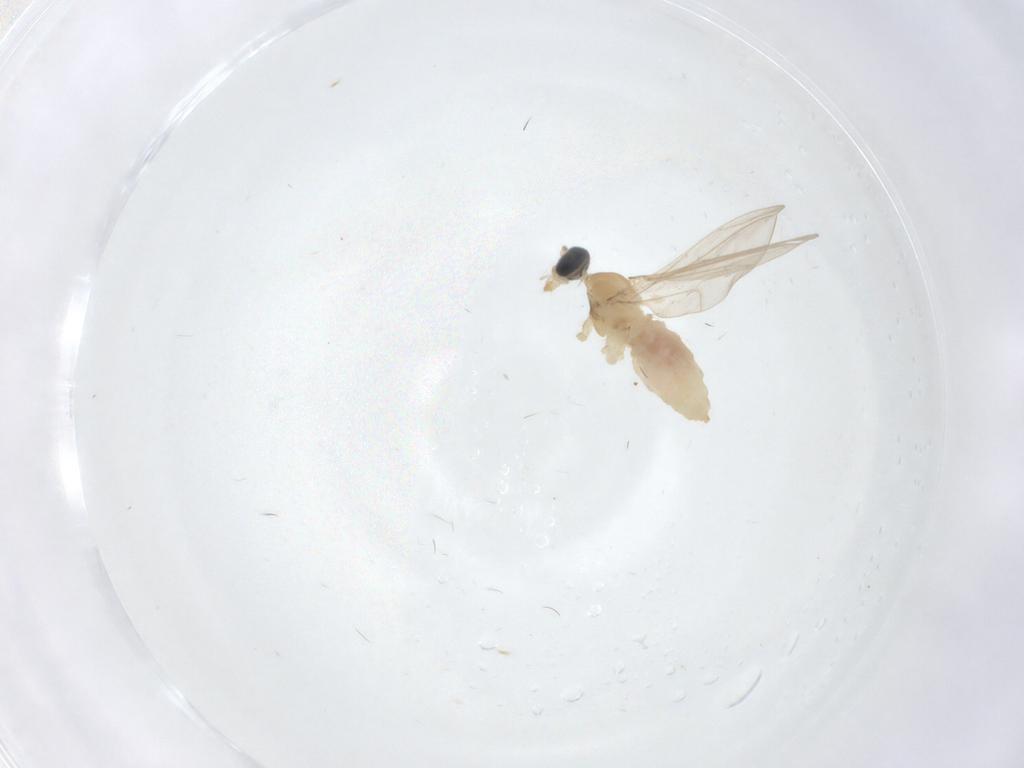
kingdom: Animalia
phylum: Arthropoda
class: Insecta
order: Diptera
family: Cecidomyiidae
